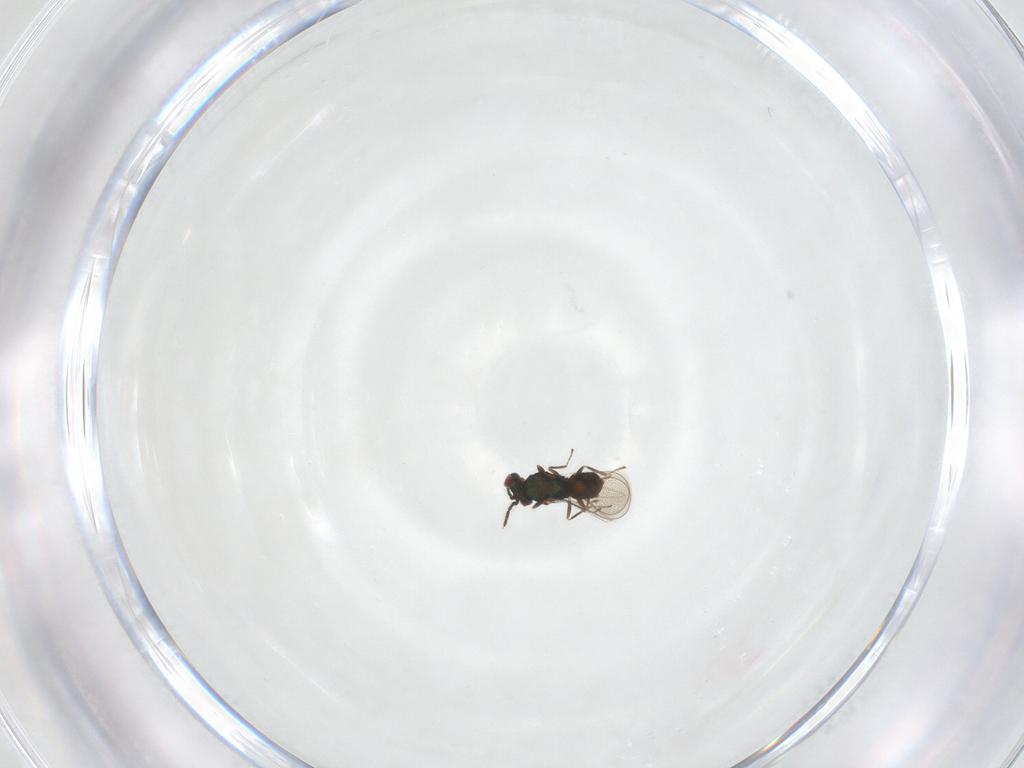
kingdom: Animalia
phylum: Arthropoda
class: Insecta
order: Hymenoptera
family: Eulophidae
